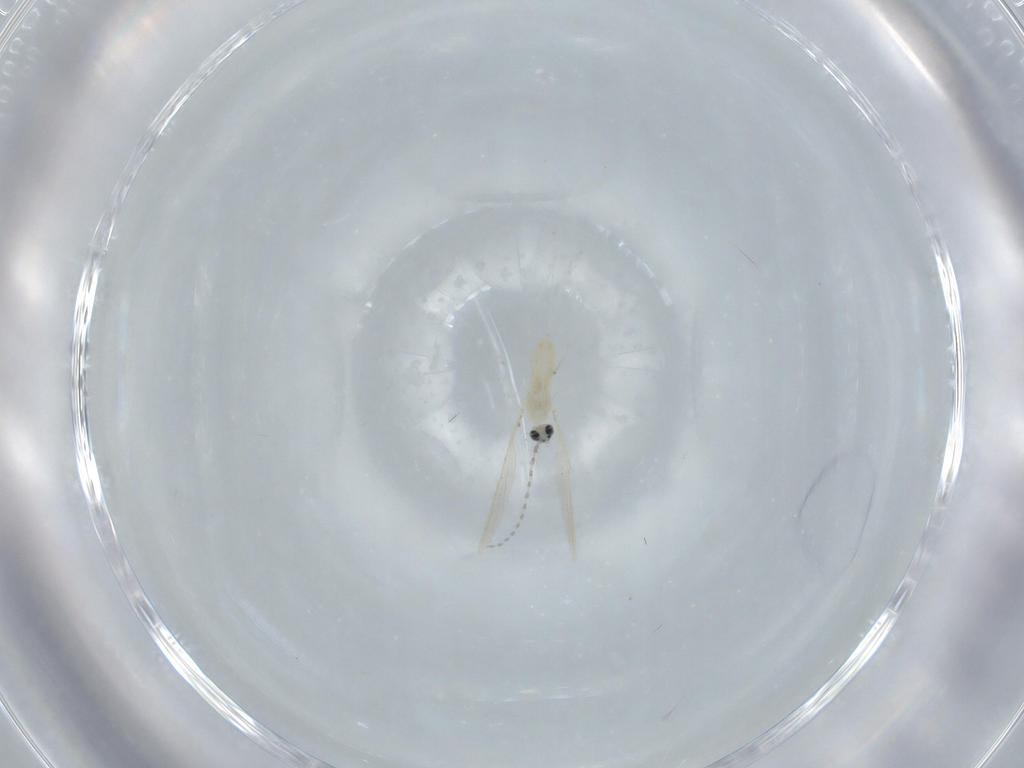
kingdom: Animalia
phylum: Arthropoda
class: Insecta
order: Diptera
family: Cecidomyiidae
